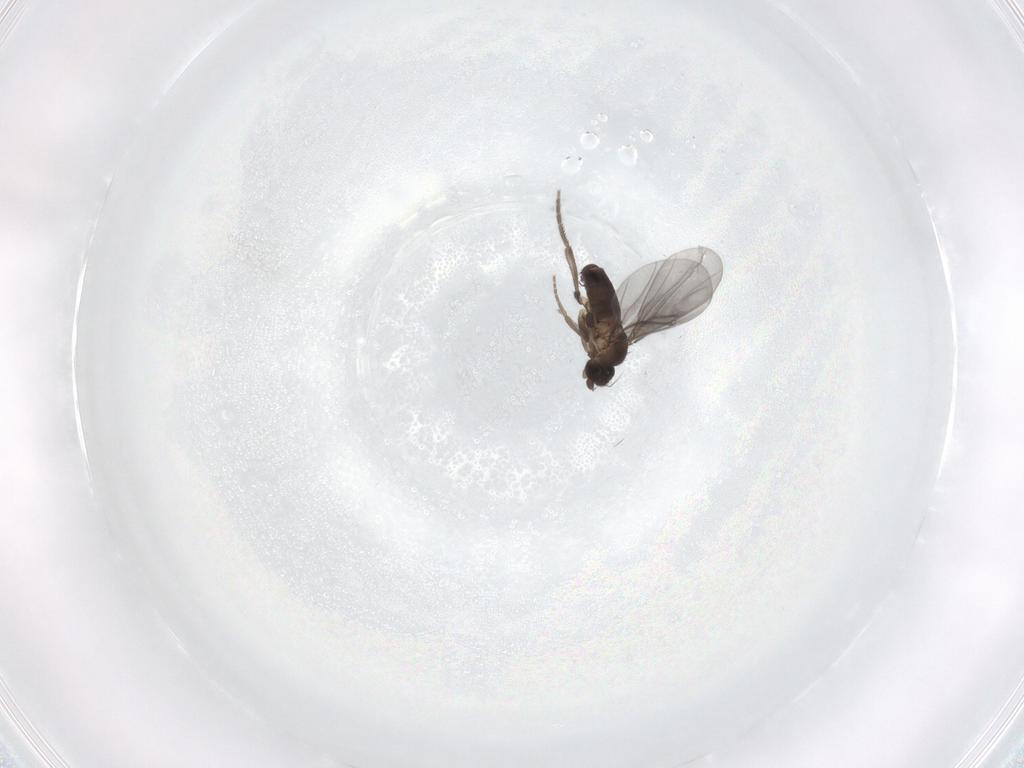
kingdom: Animalia
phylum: Arthropoda
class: Insecta
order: Diptera
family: Phoridae
